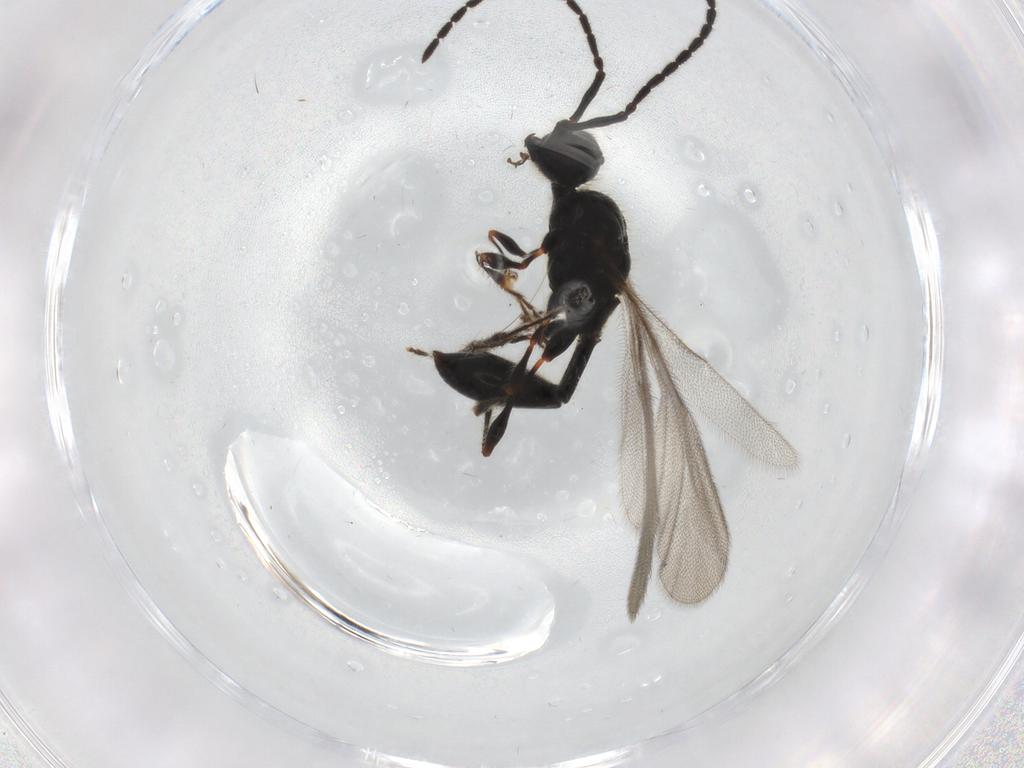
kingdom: Animalia
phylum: Arthropoda
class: Insecta
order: Hymenoptera
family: Diapriidae
